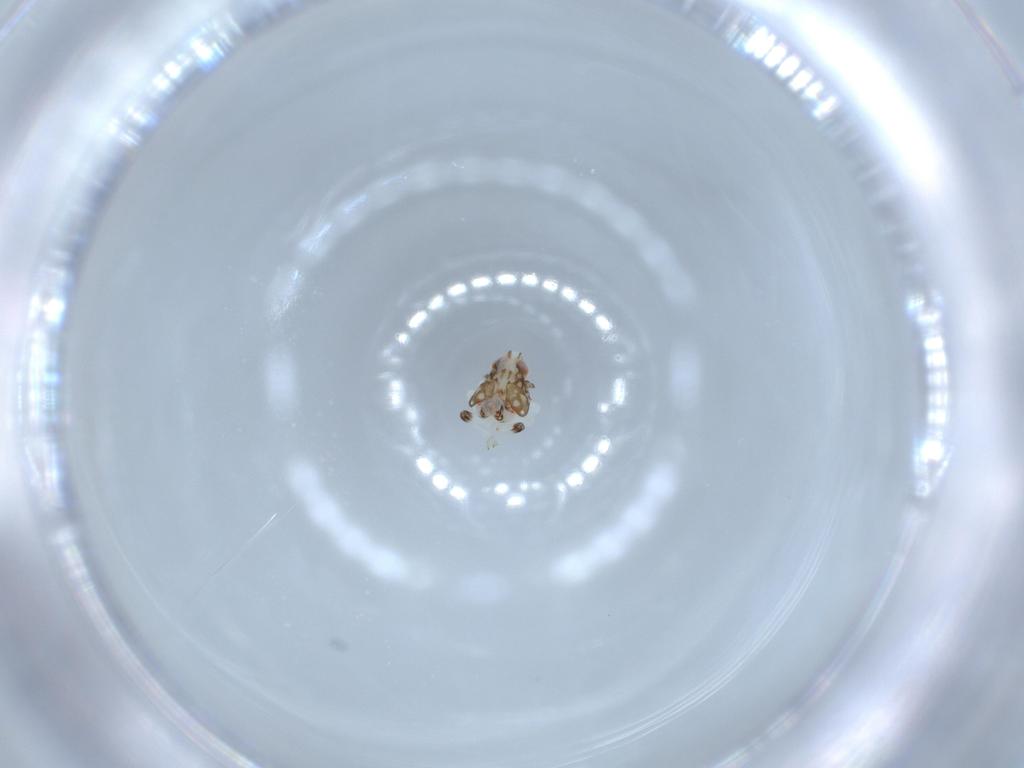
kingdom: Animalia
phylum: Arthropoda
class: Insecta
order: Hemiptera
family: Nogodinidae
